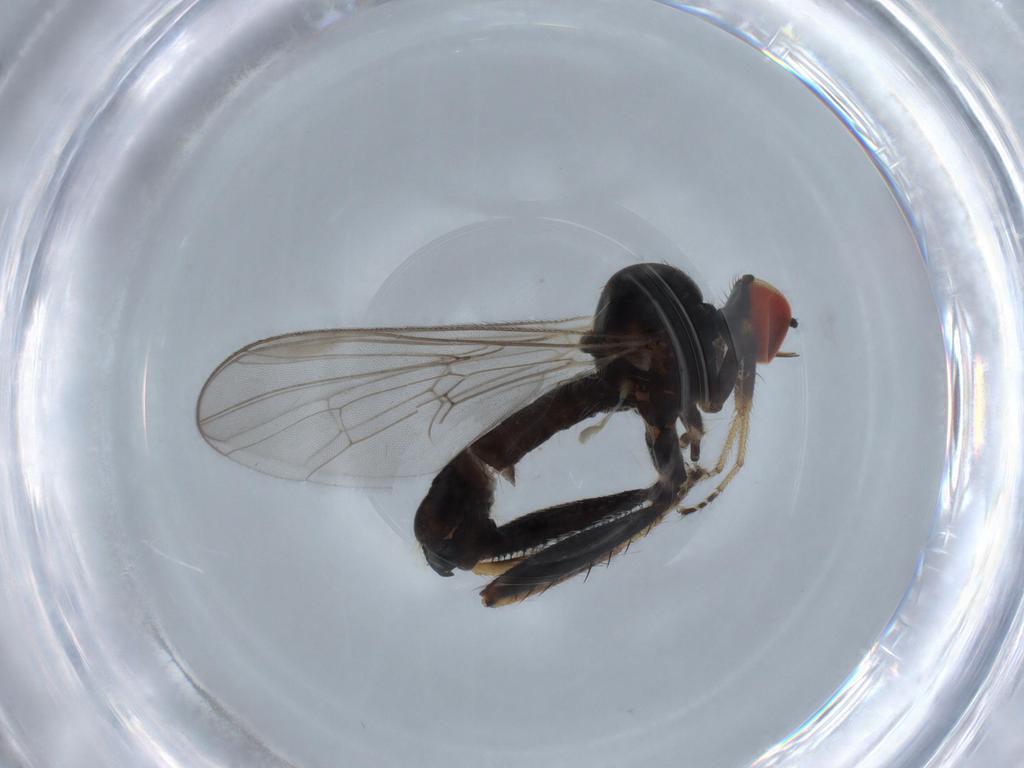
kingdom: Animalia
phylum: Arthropoda
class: Insecta
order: Diptera
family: Hybotidae
